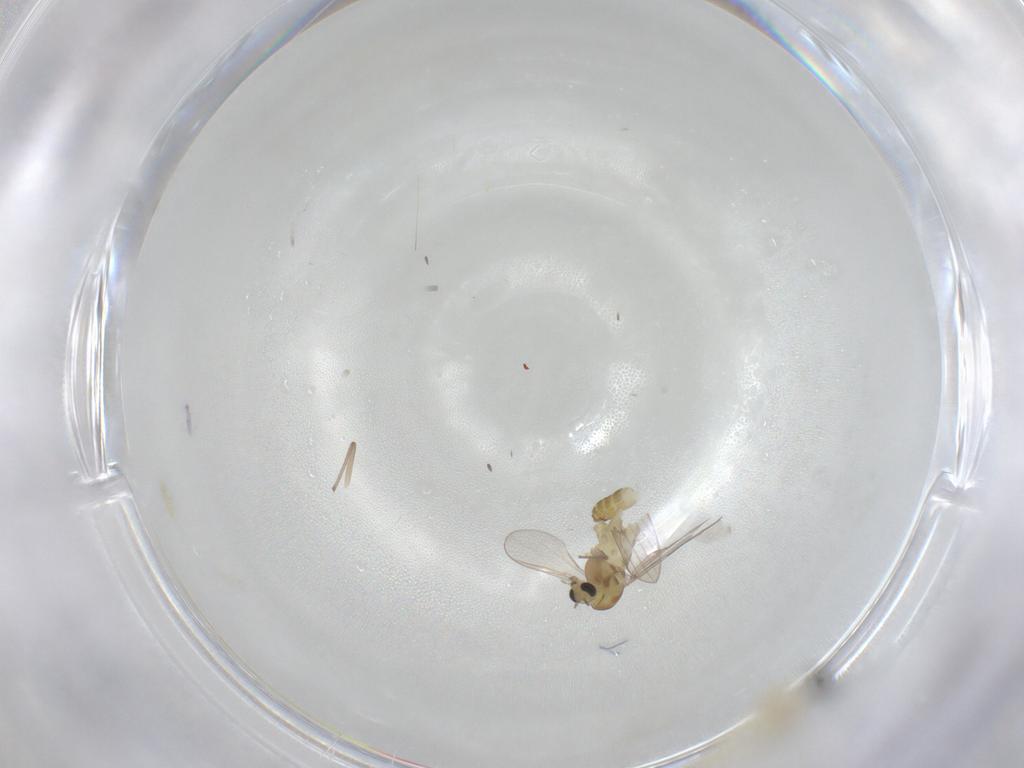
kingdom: Animalia
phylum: Arthropoda
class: Insecta
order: Diptera
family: Chironomidae
